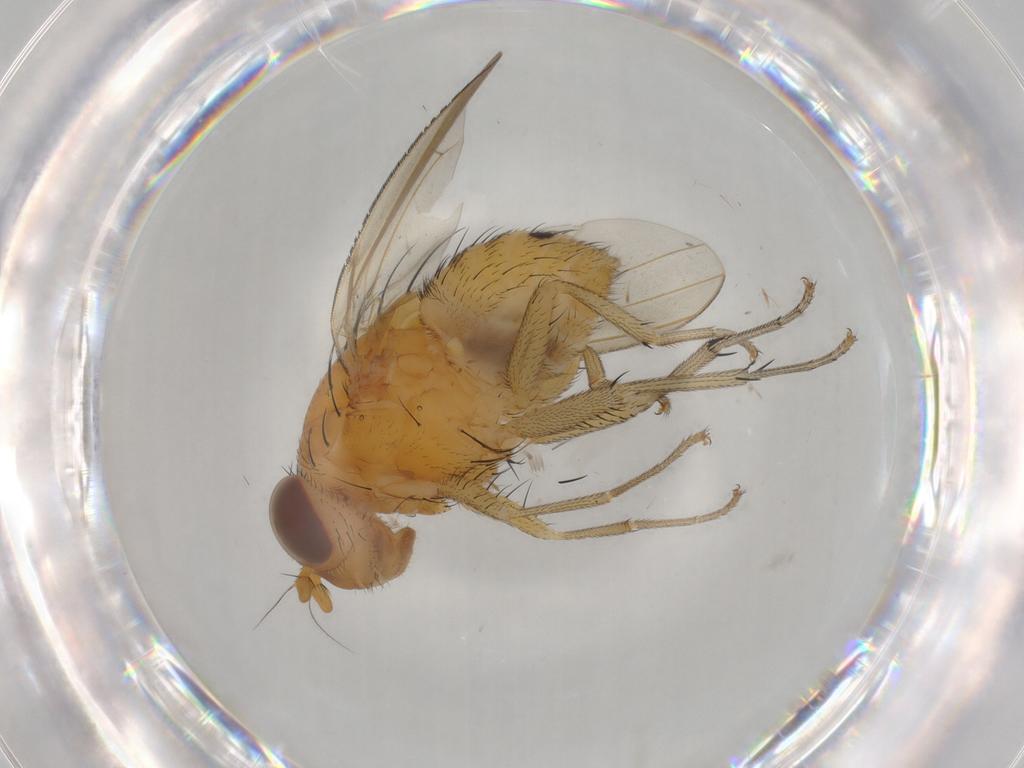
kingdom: Animalia
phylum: Arthropoda
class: Insecta
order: Diptera
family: Lauxaniidae
